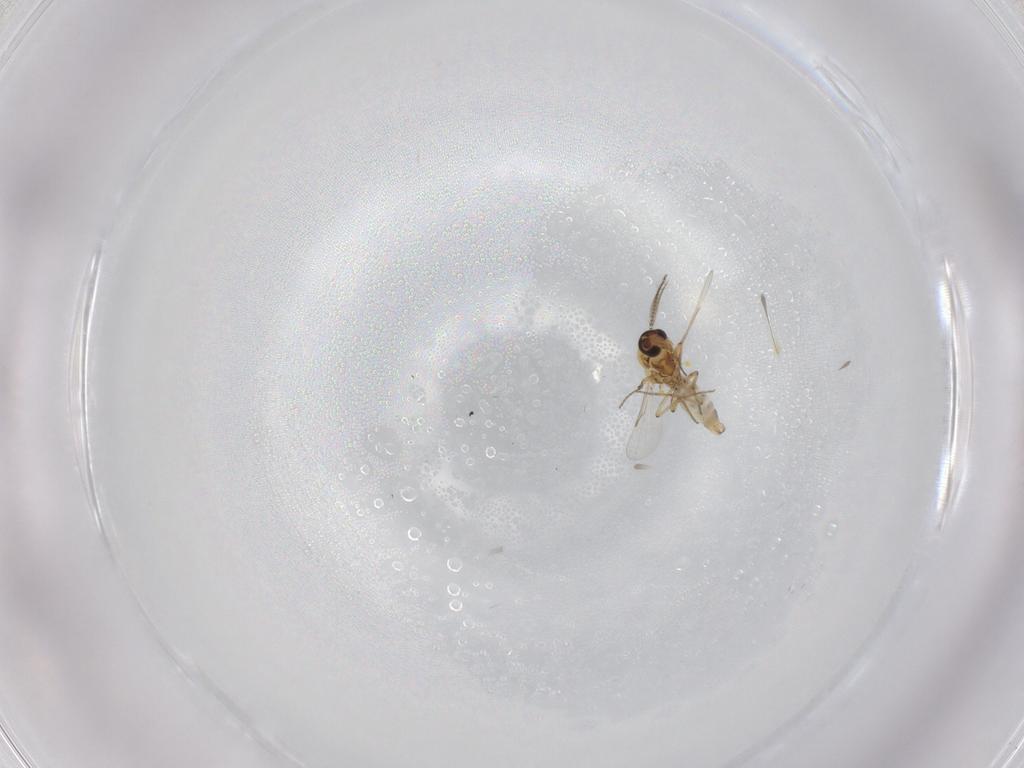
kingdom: Animalia
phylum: Arthropoda
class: Insecta
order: Diptera
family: Ceratopogonidae
